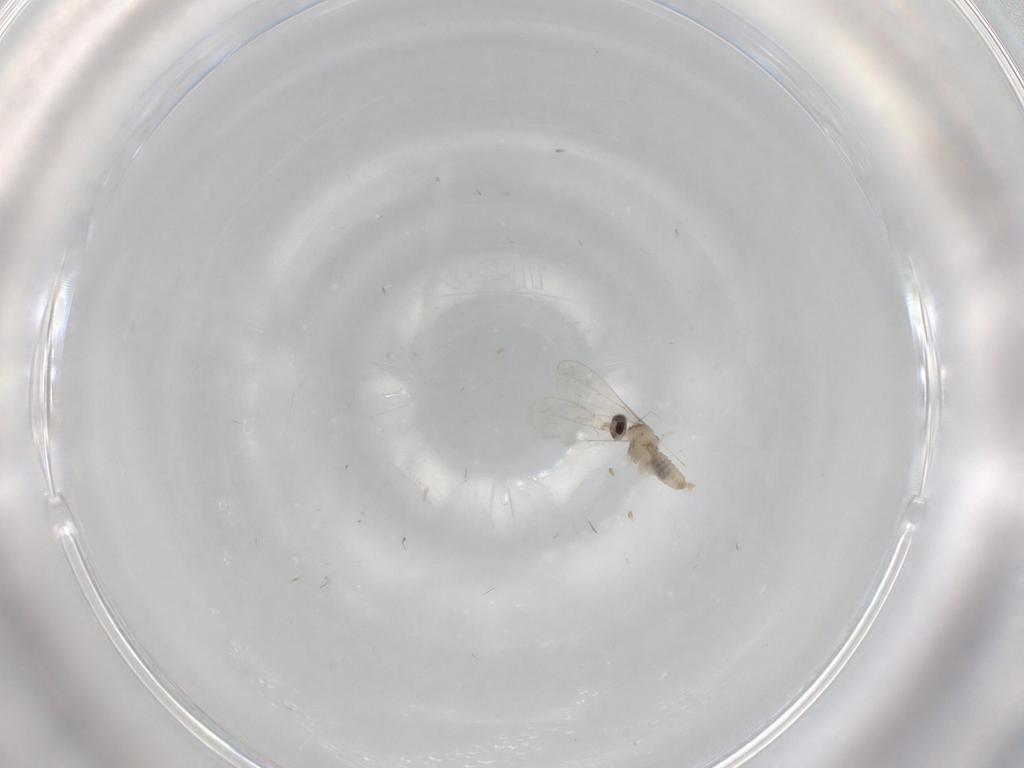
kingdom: Animalia
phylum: Arthropoda
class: Insecta
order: Diptera
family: Cecidomyiidae
